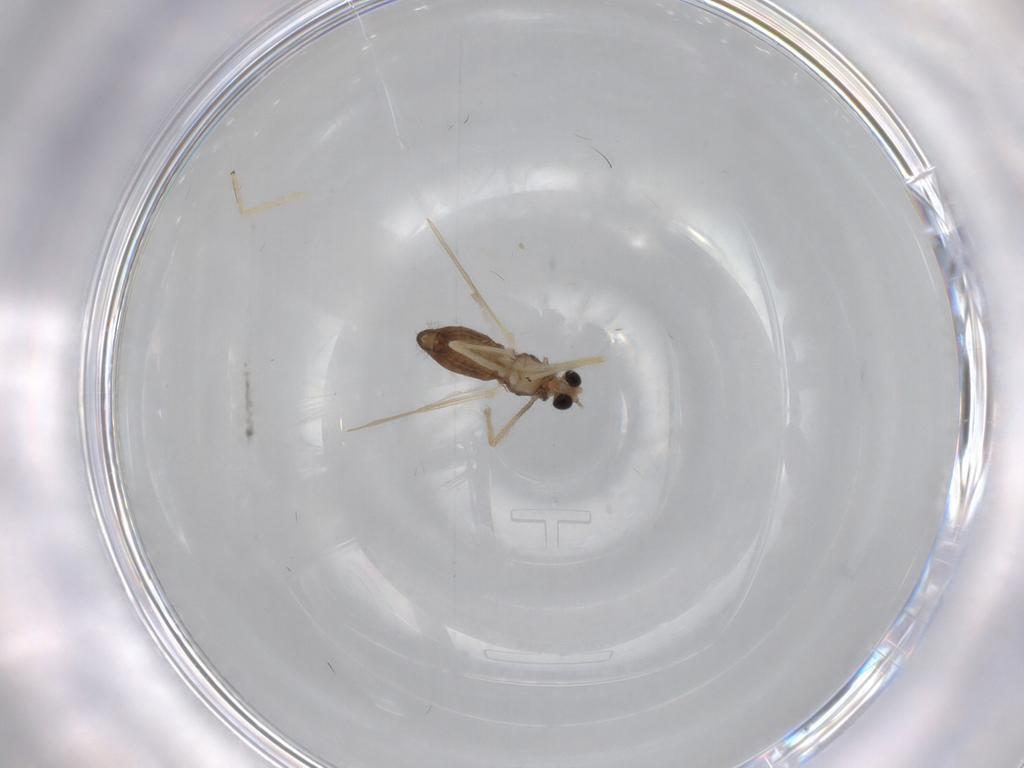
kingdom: Animalia
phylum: Arthropoda
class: Insecta
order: Diptera
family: Chironomidae
